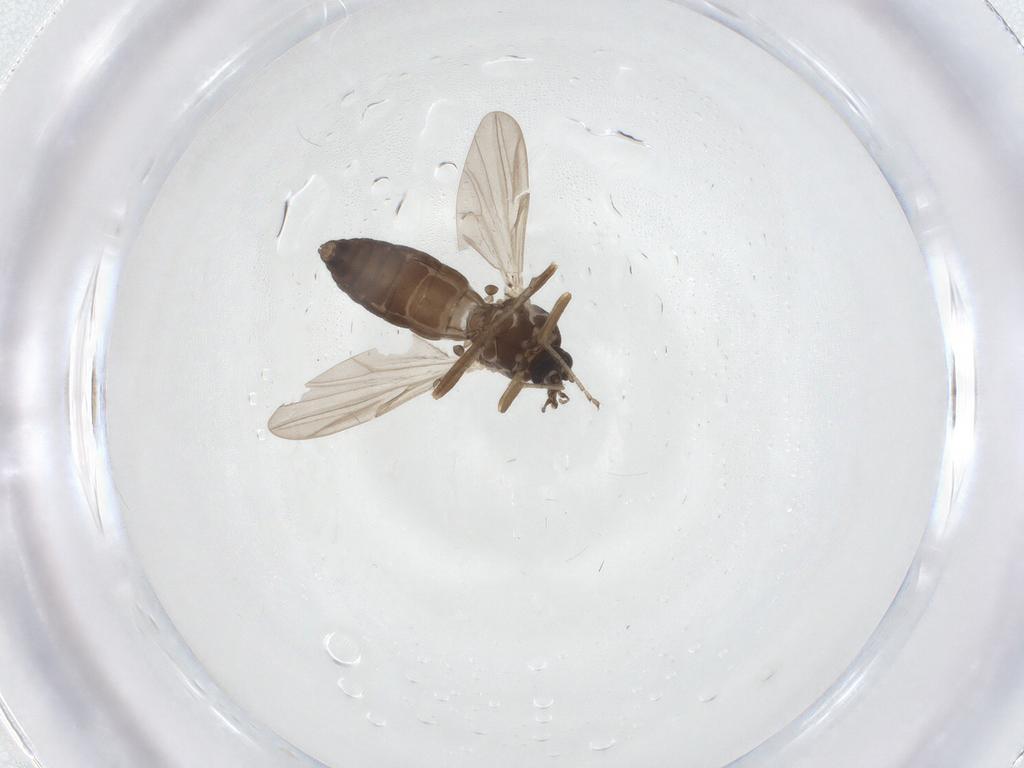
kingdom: Animalia
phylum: Arthropoda
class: Insecta
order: Diptera
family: Ceratopogonidae
